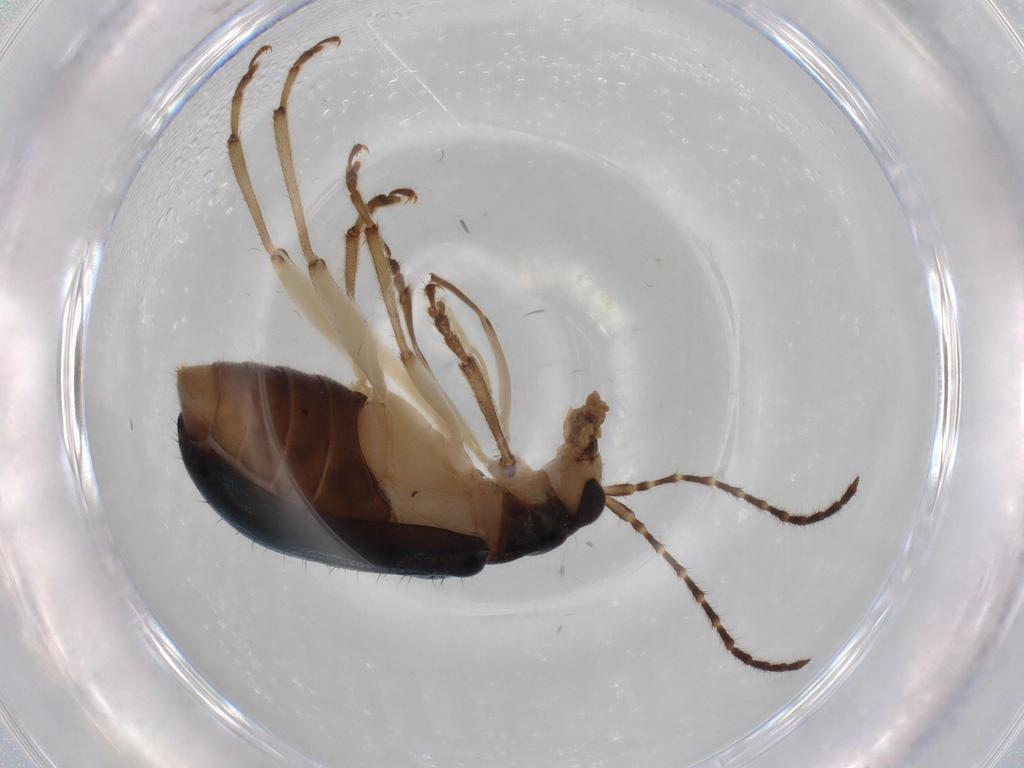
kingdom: Animalia
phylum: Arthropoda
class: Insecta
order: Coleoptera
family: Chrysomelidae
